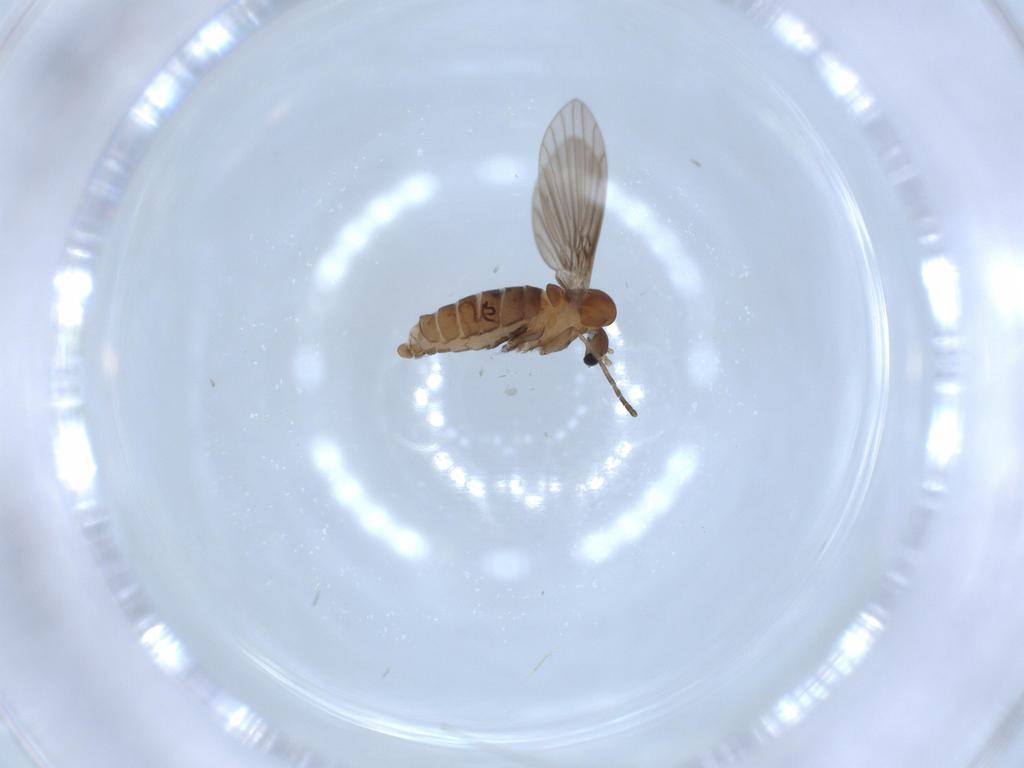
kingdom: Animalia
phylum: Arthropoda
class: Insecta
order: Diptera
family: Psychodidae
